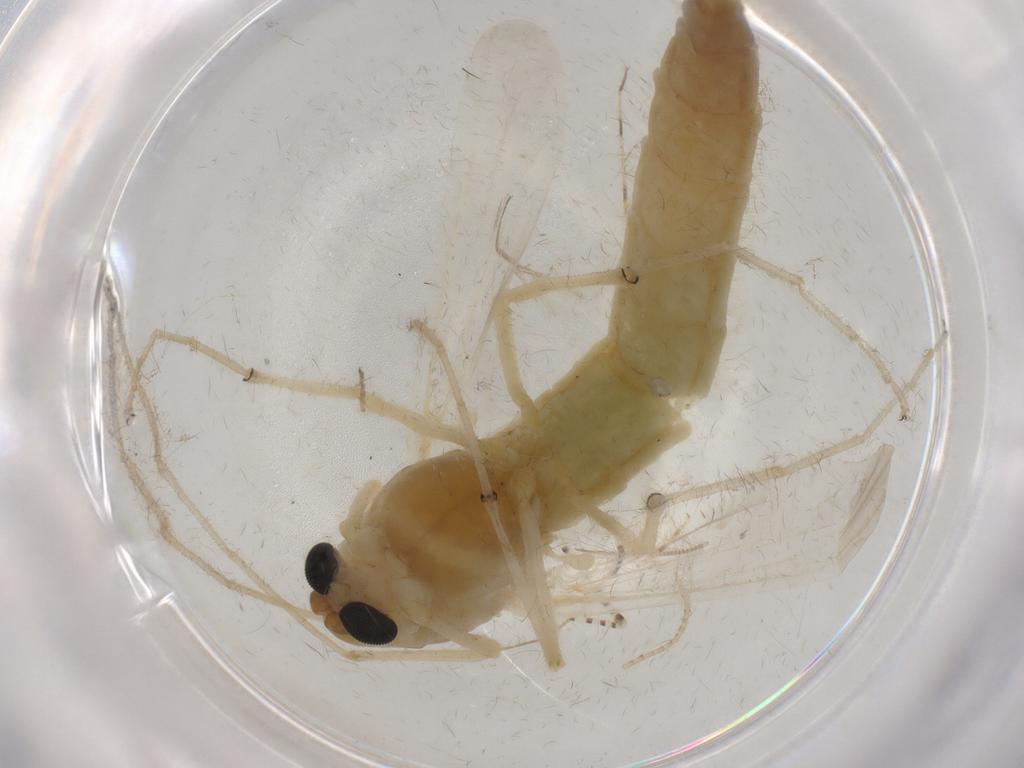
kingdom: Animalia
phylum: Arthropoda
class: Insecta
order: Diptera
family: Chironomidae
